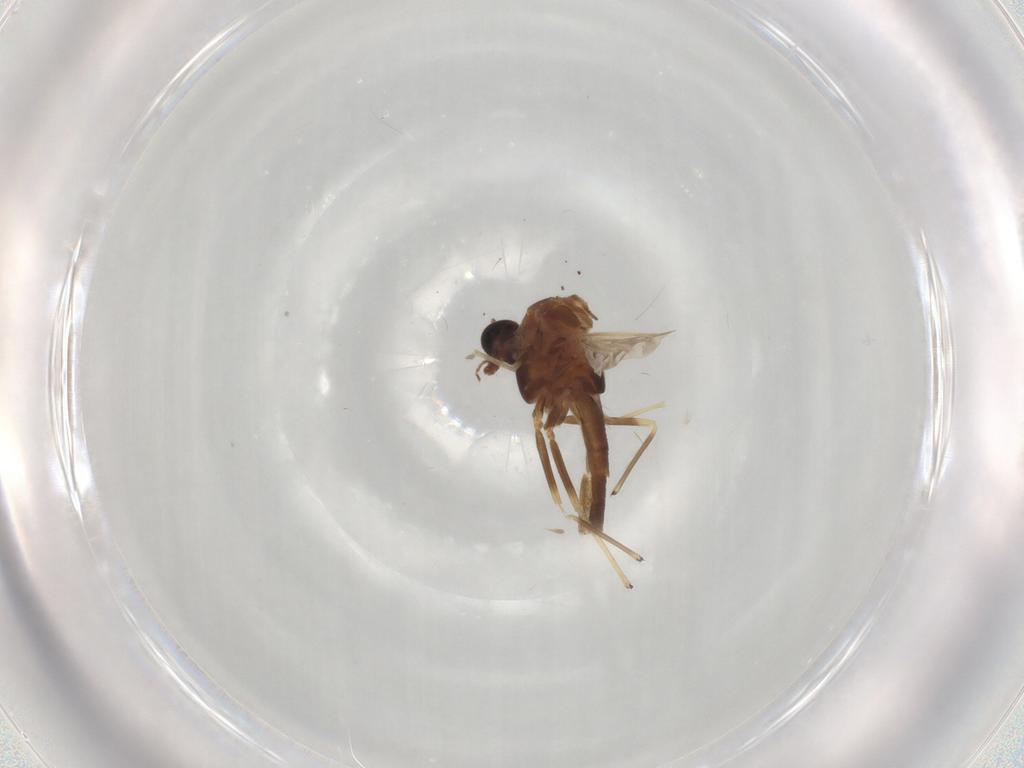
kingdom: Animalia
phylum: Arthropoda
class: Insecta
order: Diptera
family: Chironomidae
